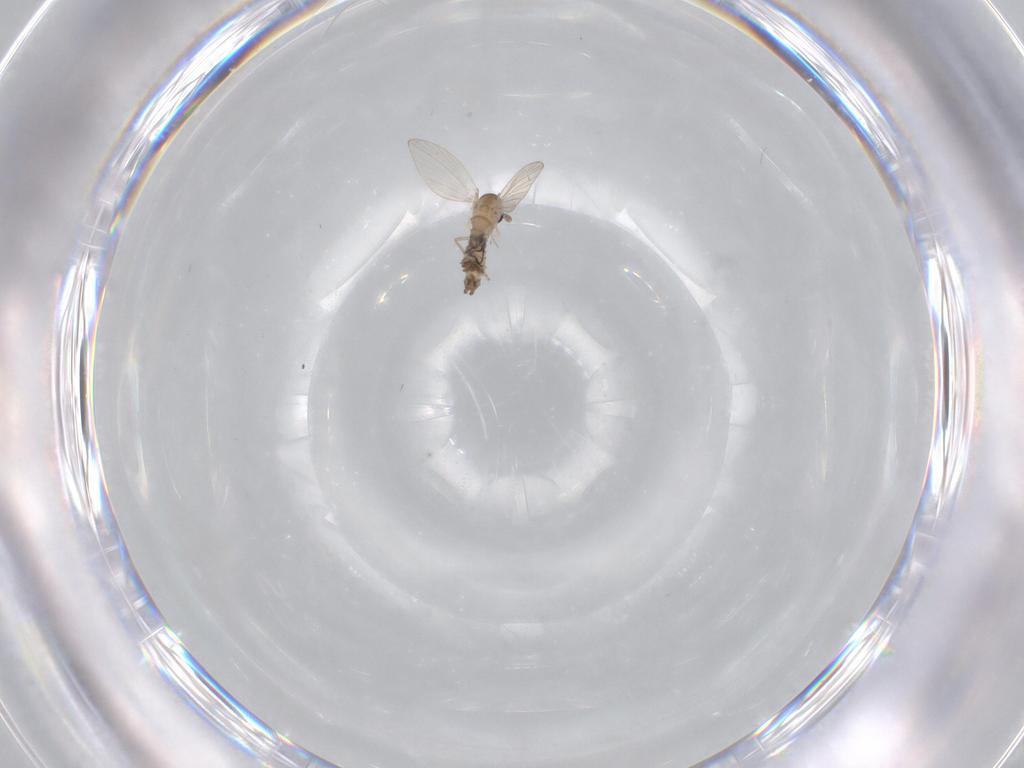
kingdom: Animalia
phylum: Arthropoda
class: Insecta
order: Diptera
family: Psychodidae
